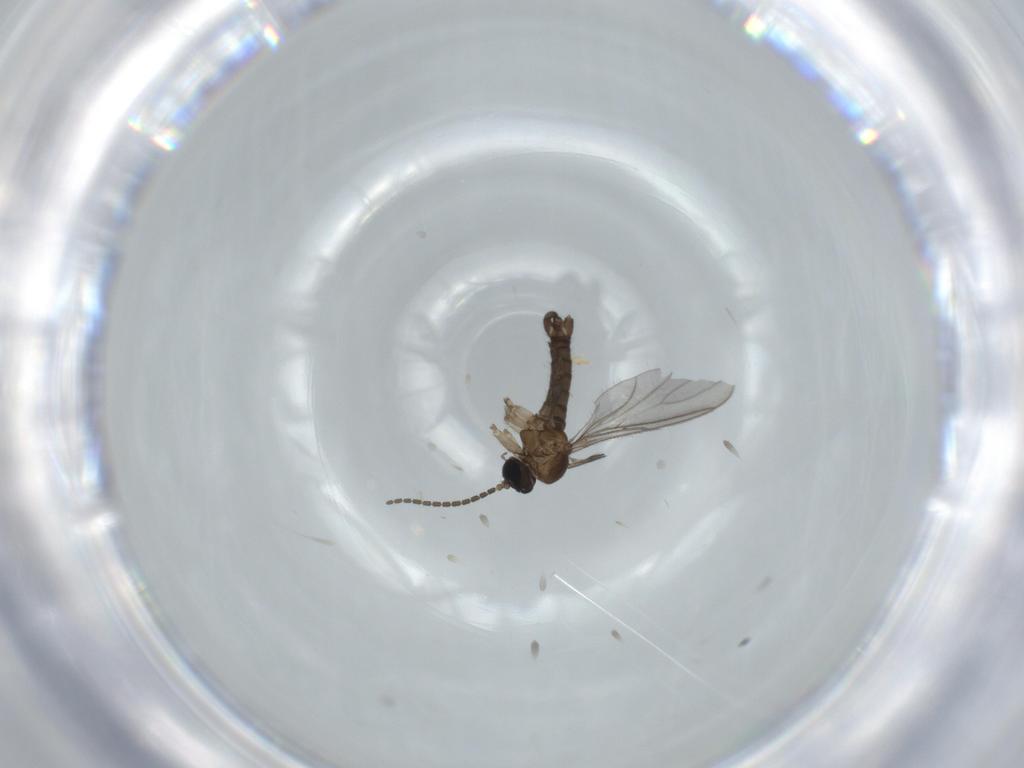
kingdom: Animalia
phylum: Arthropoda
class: Insecta
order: Diptera
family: Sciaridae
